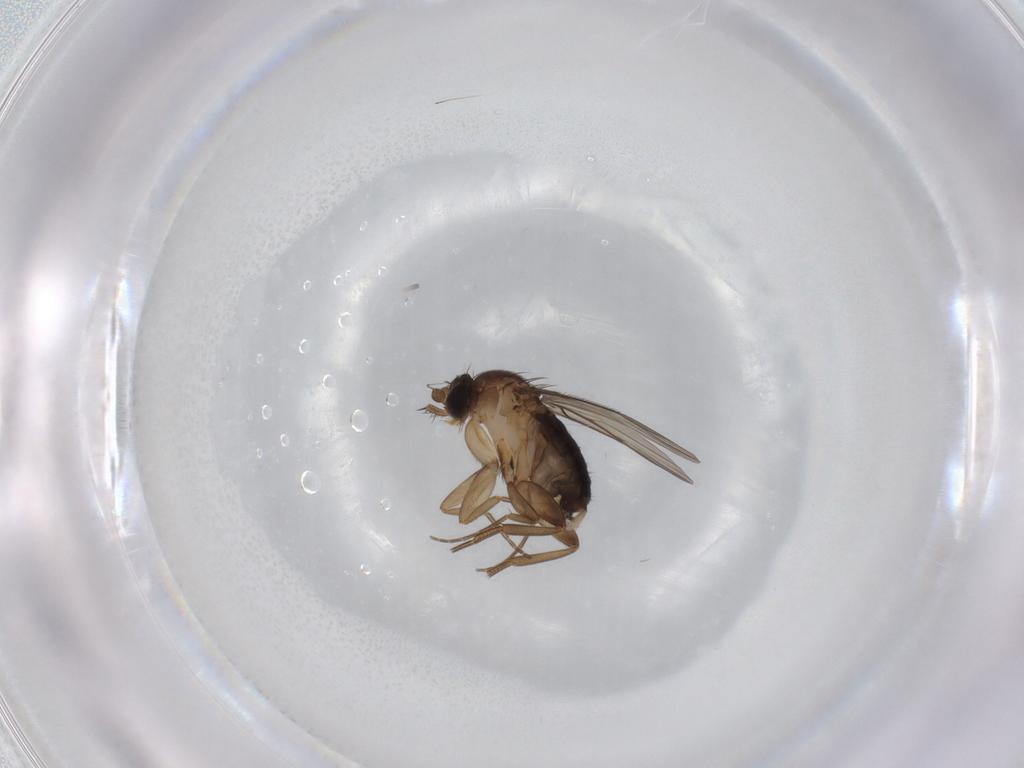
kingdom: Animalia
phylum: Arthropoda
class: Insecta
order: Diptera
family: Phoridae
